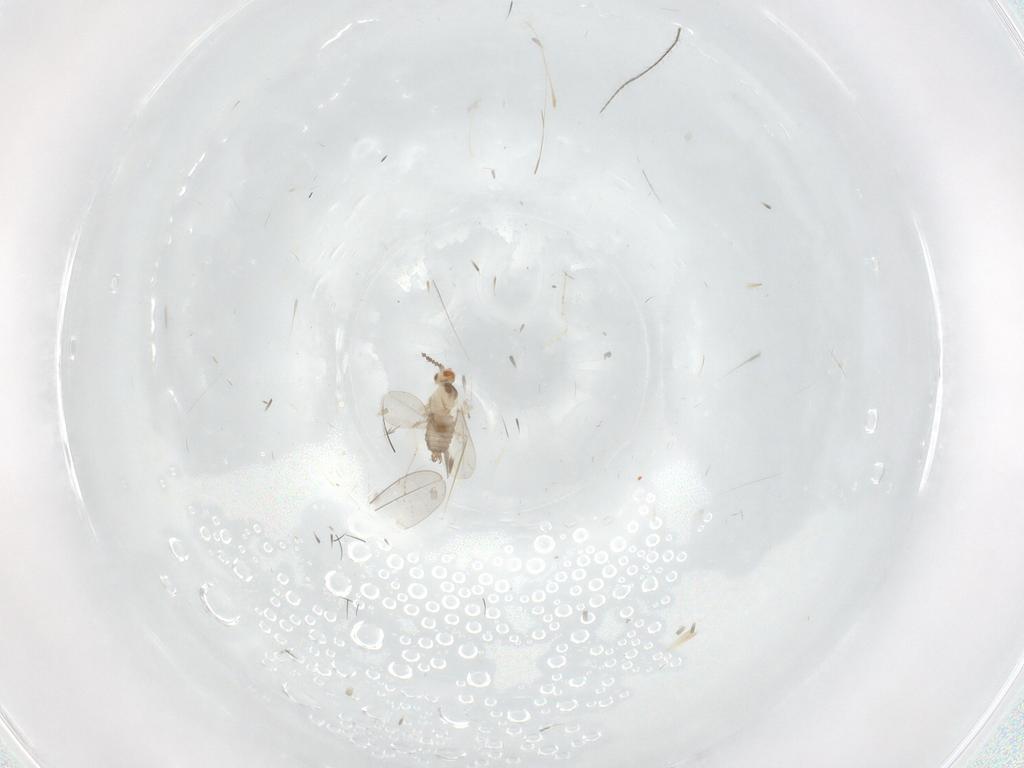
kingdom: Animalia
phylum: Arthropoda
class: Insecta
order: Diptera
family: Cecidomyiidae
